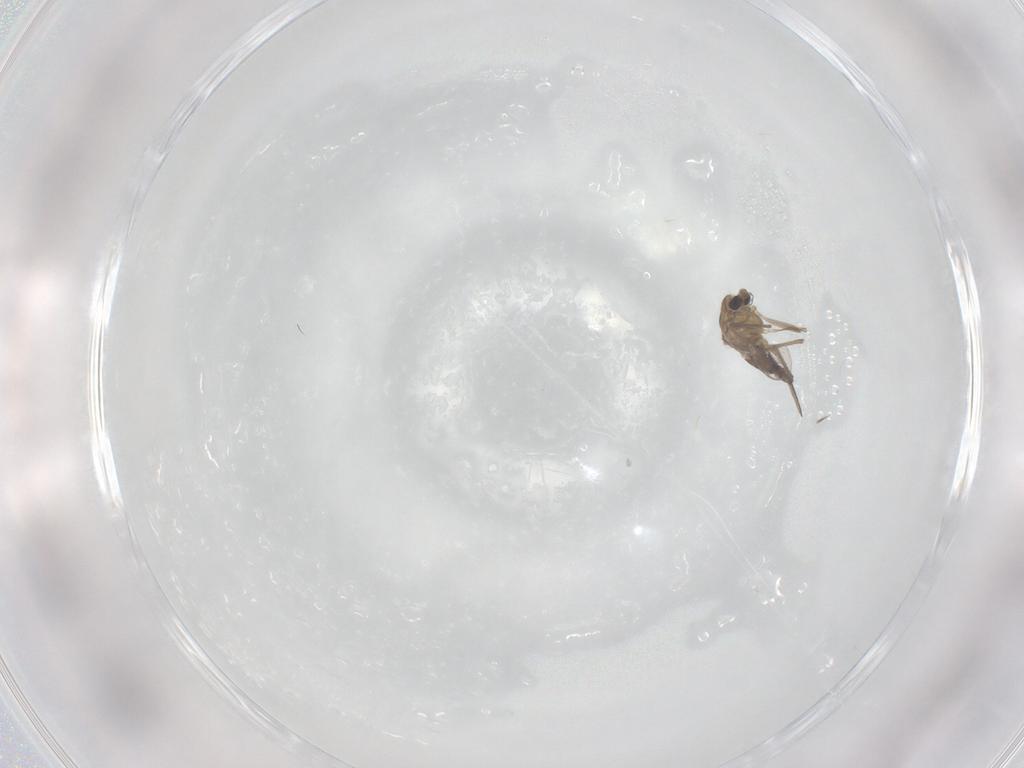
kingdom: Animalia
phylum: Arthropoda
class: Insecta
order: Diptera
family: Chironomidae
